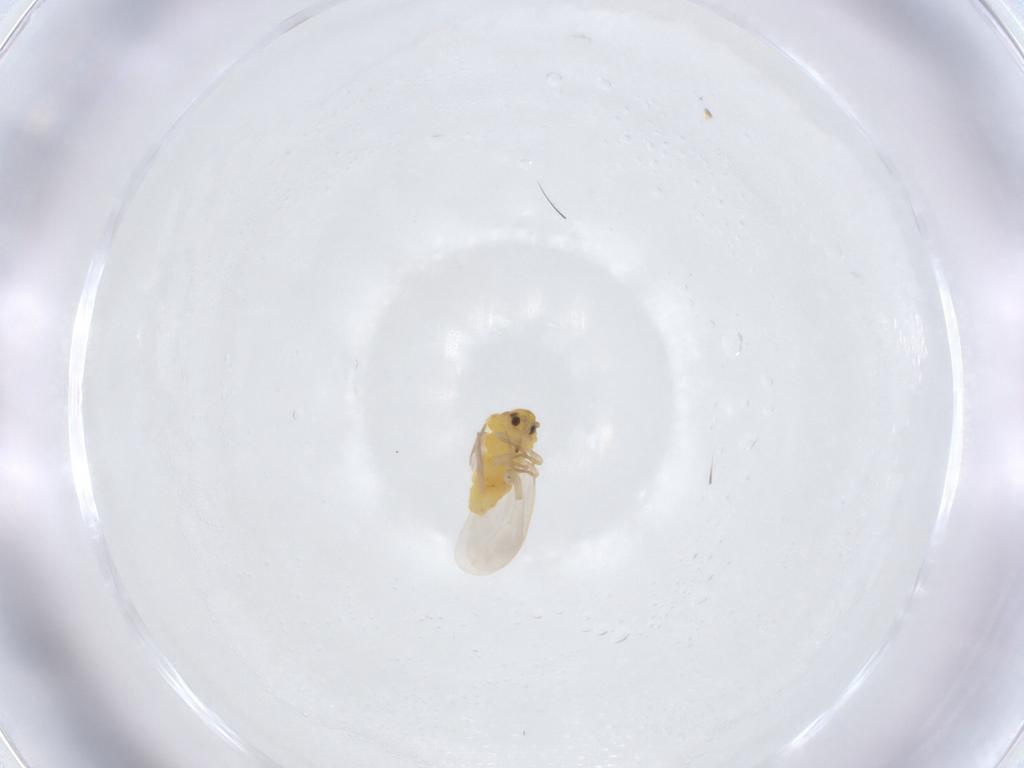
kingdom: Animalia
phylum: Arthropoda
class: Insecta
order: Hemiptera
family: Aleyrodidae
